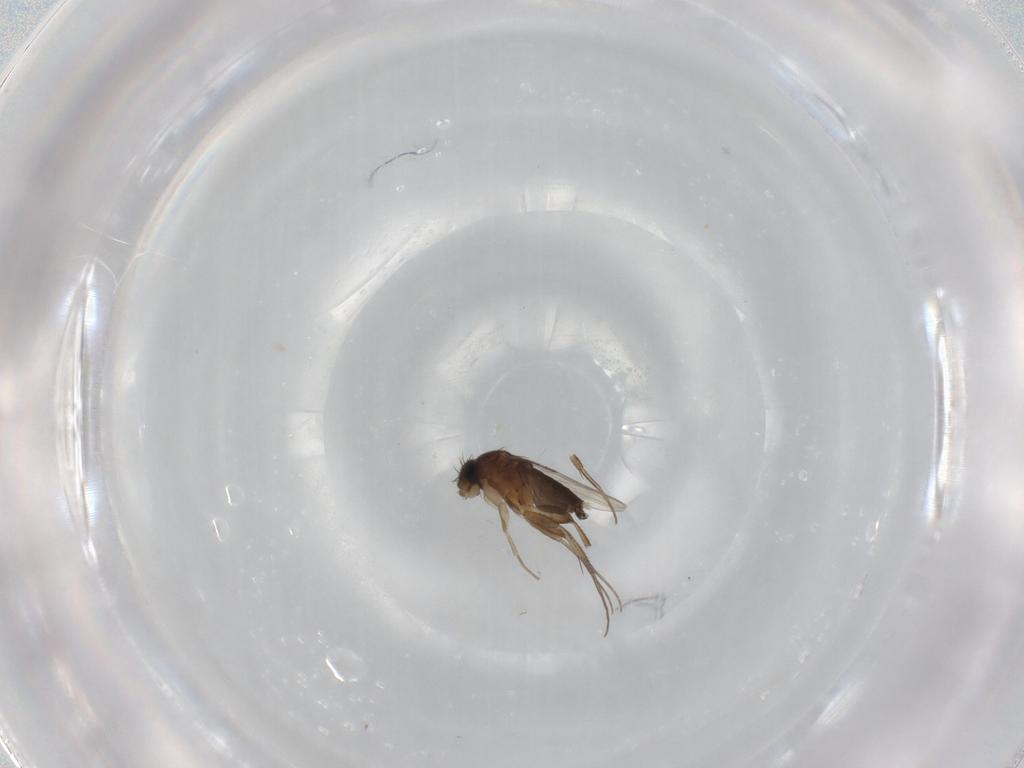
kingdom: Animalia
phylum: Arthropoda
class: Insecta
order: Diptera
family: Phoridae
